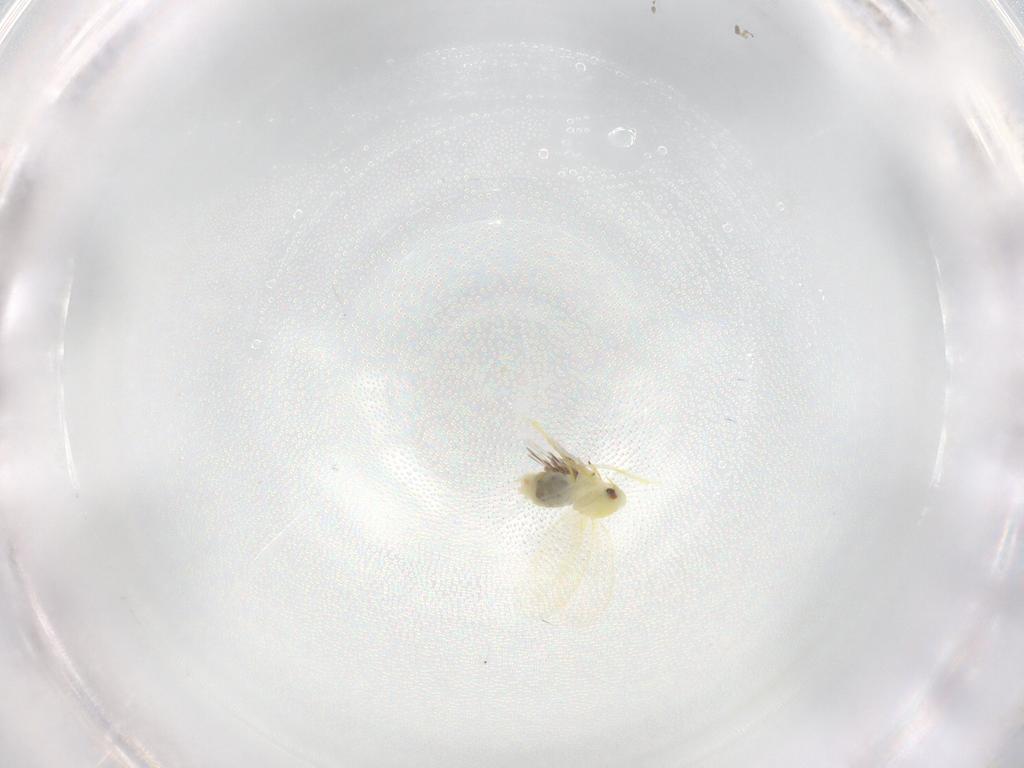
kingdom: Animalia
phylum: Arthropoda
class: Insecta
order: Hemiptera
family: Aleyrodidae
